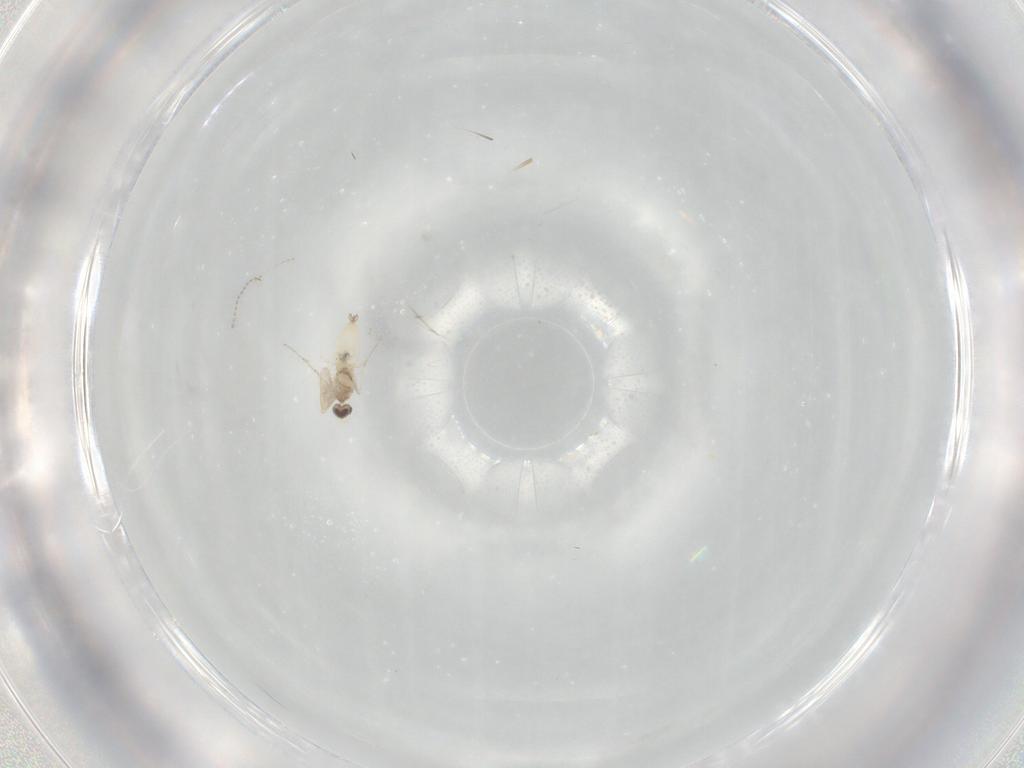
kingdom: Animalia
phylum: Arthropoda
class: Insecta
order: Diptera
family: Cecidomyiidae
